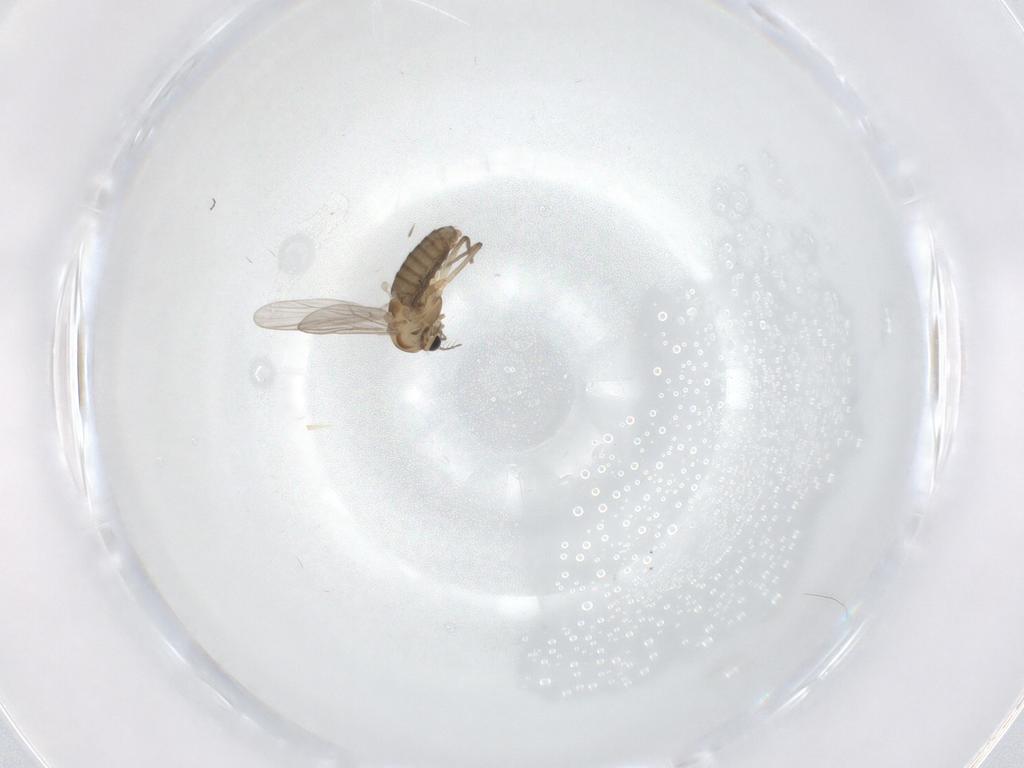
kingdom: Animalia
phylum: Arthropoda
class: Insecta
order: Diptera
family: Chironomidae
